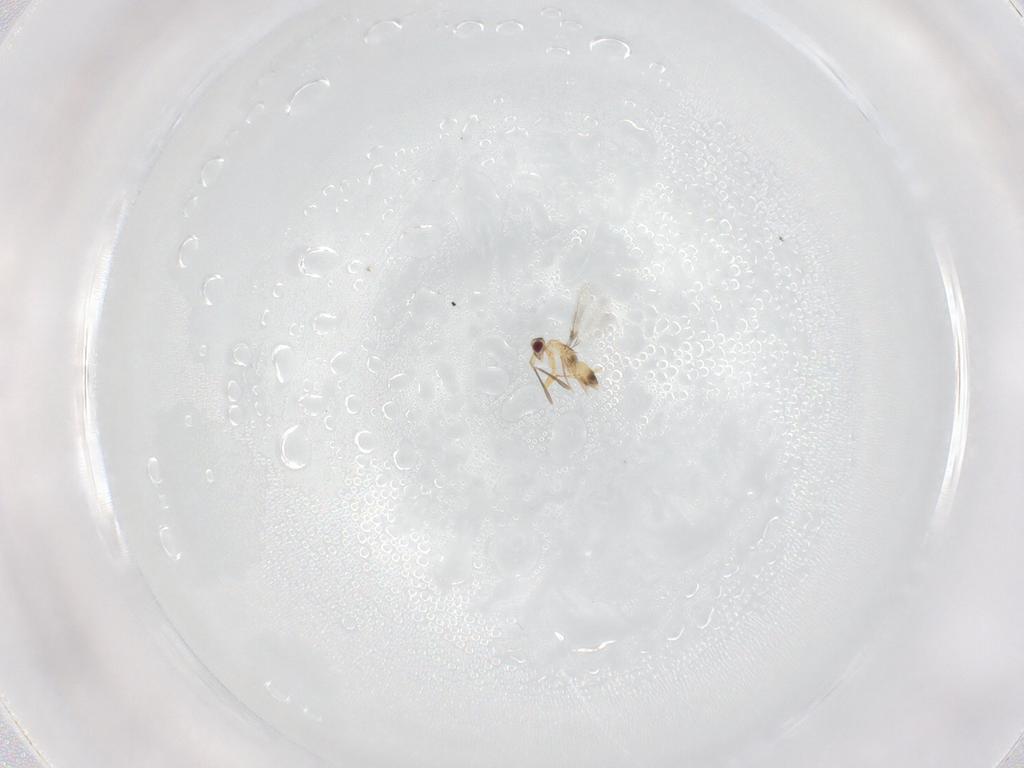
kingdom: Animalia
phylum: Arthropoda
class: Insecta
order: Hymenoptera
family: Mymaridae
